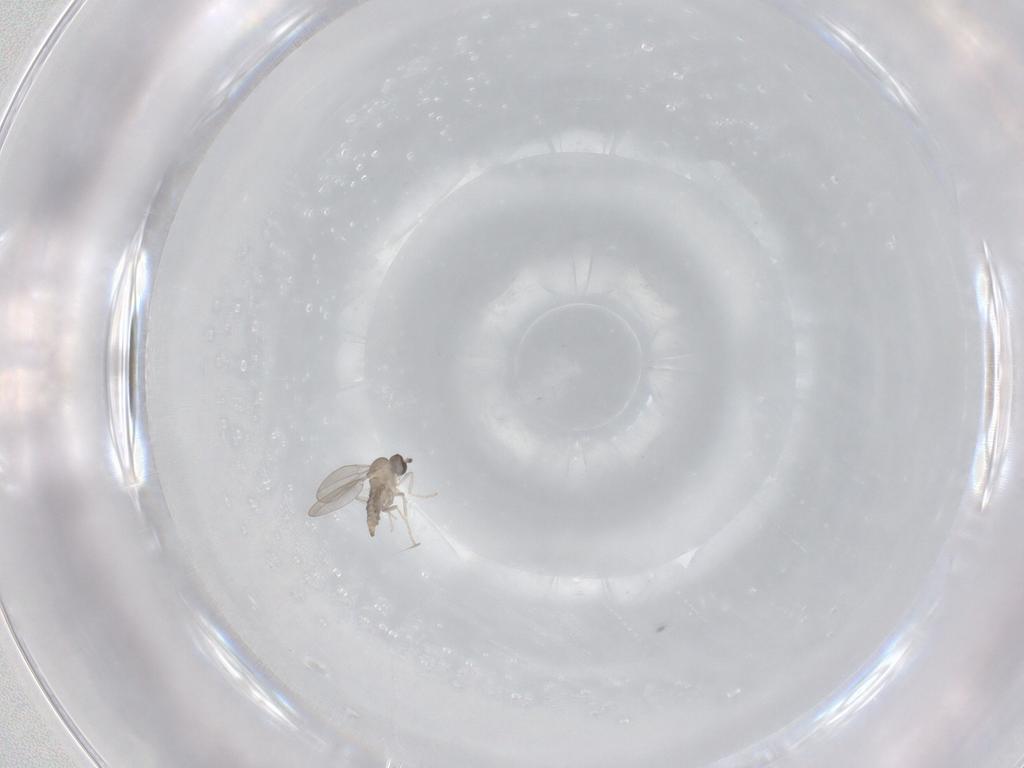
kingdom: Animalia
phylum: Arthropoda
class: Insecta
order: Diptera
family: Cecidomyiidae
